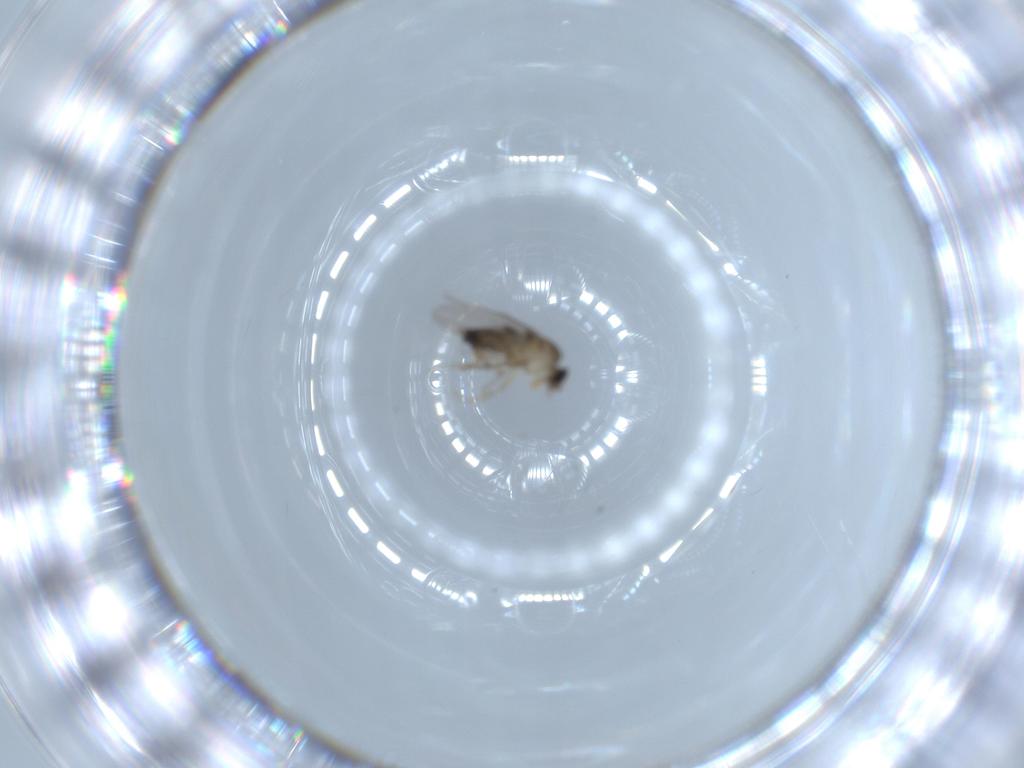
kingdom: Animalia
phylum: Arthropoda
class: Insecta
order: Diptera
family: Phoridae
